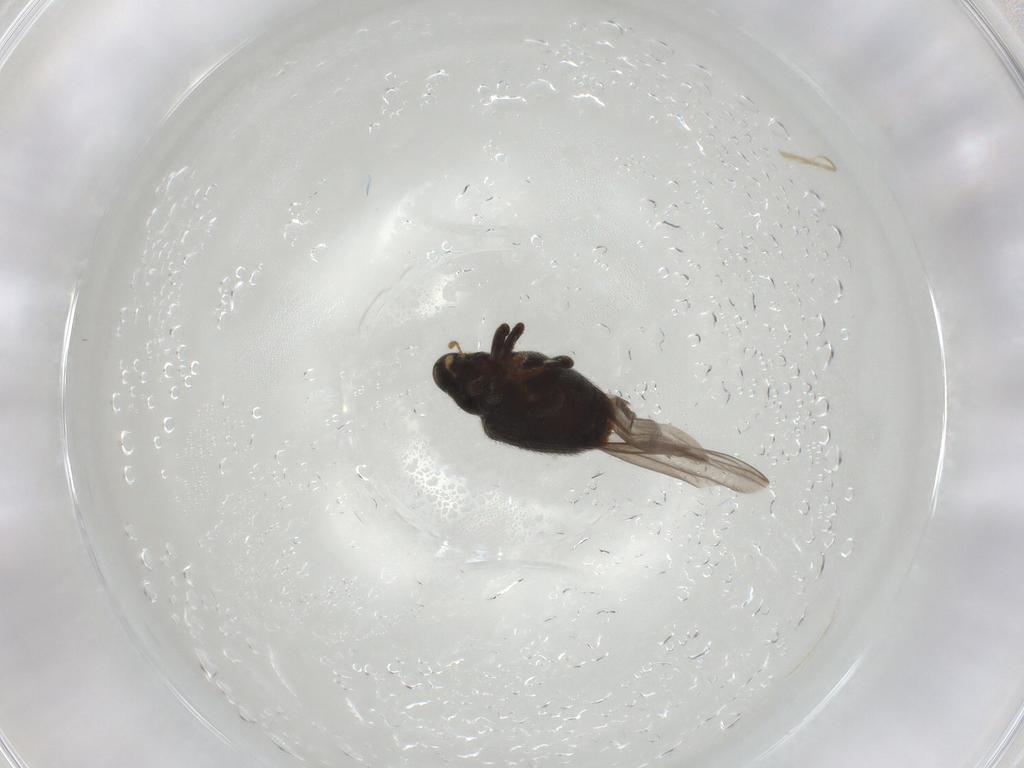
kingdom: Animalia
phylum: Arthropoda
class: Insecta
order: Coleoptera
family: Curculionidae
